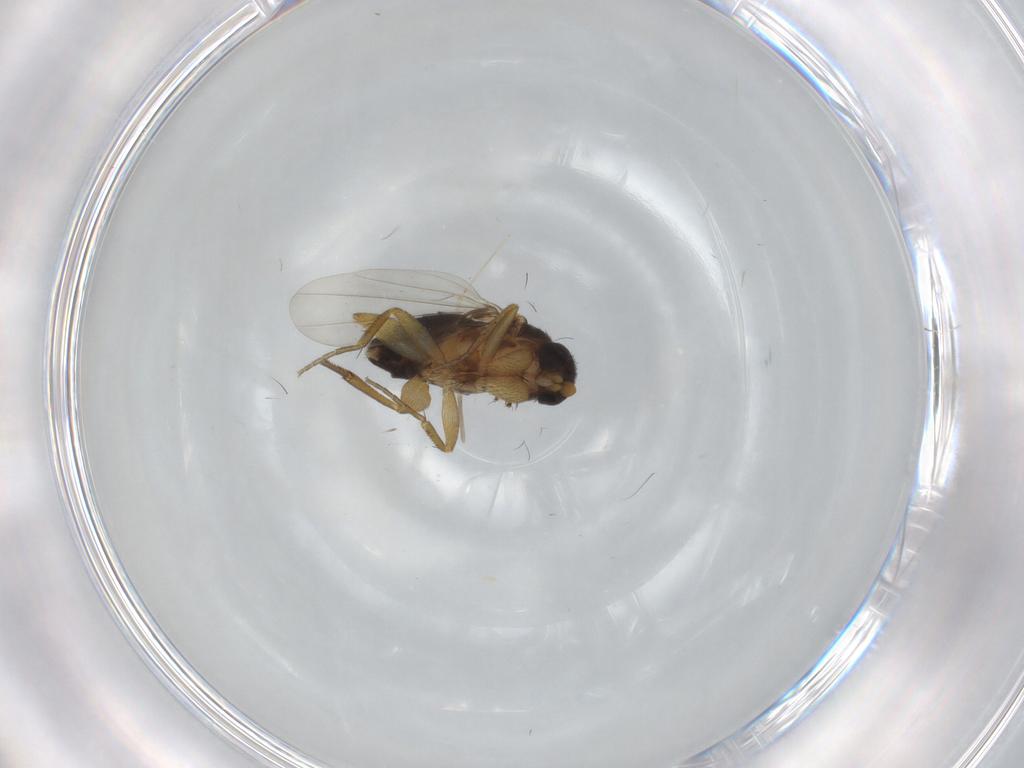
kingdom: Animalia
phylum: Arthropoda
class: Insecta
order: Diptera
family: Phoridae
